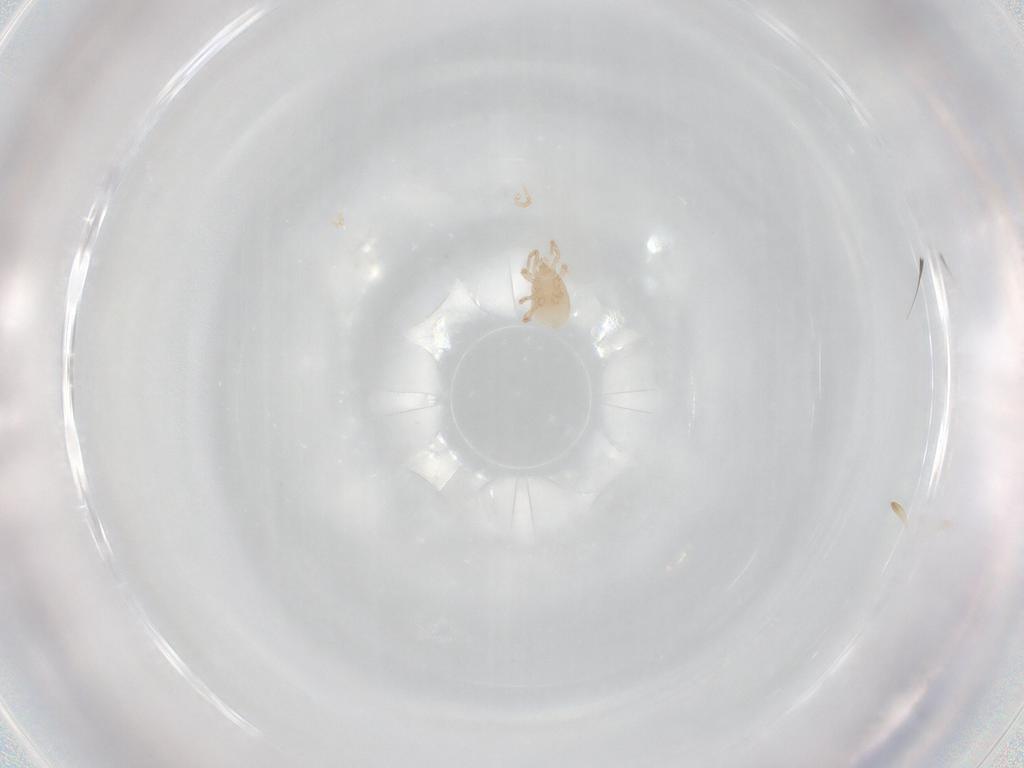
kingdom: Animalia
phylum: Arthropoda
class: Arachnida
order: Mesostigmata
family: Ascidae
